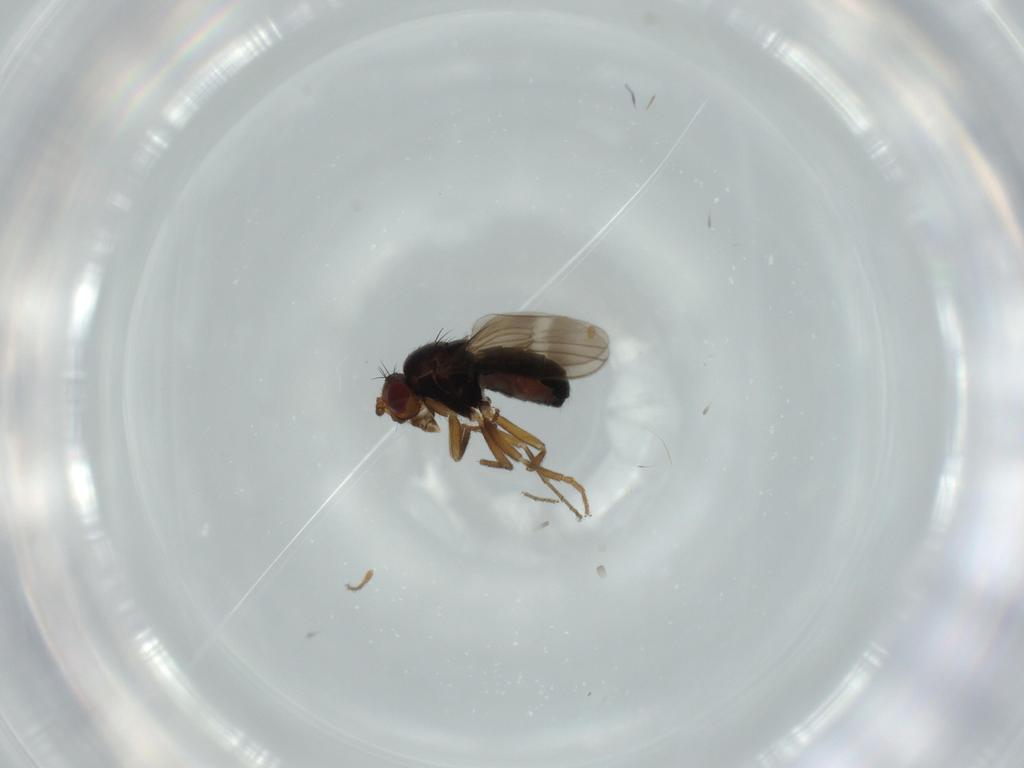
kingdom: Animalia
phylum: Arthropoda
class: Insecta
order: Diptera
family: Sphaeroceridae
